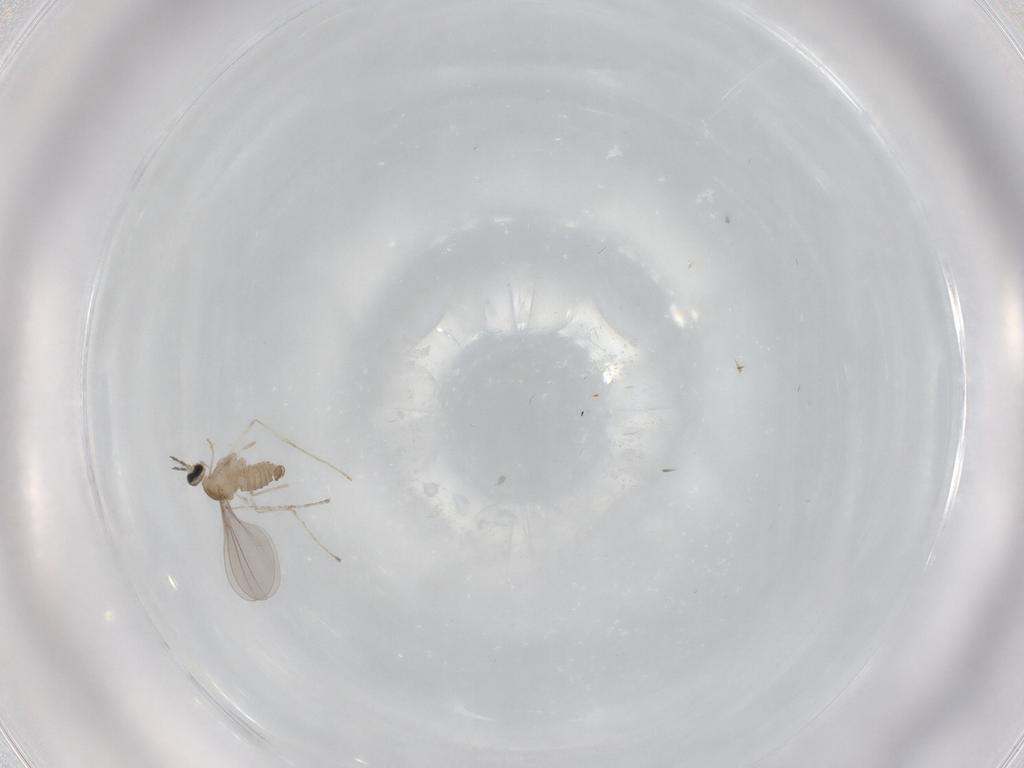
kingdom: Animalia
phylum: Arthropoda
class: Insecta
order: Diptera
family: Cecidomyiidae
